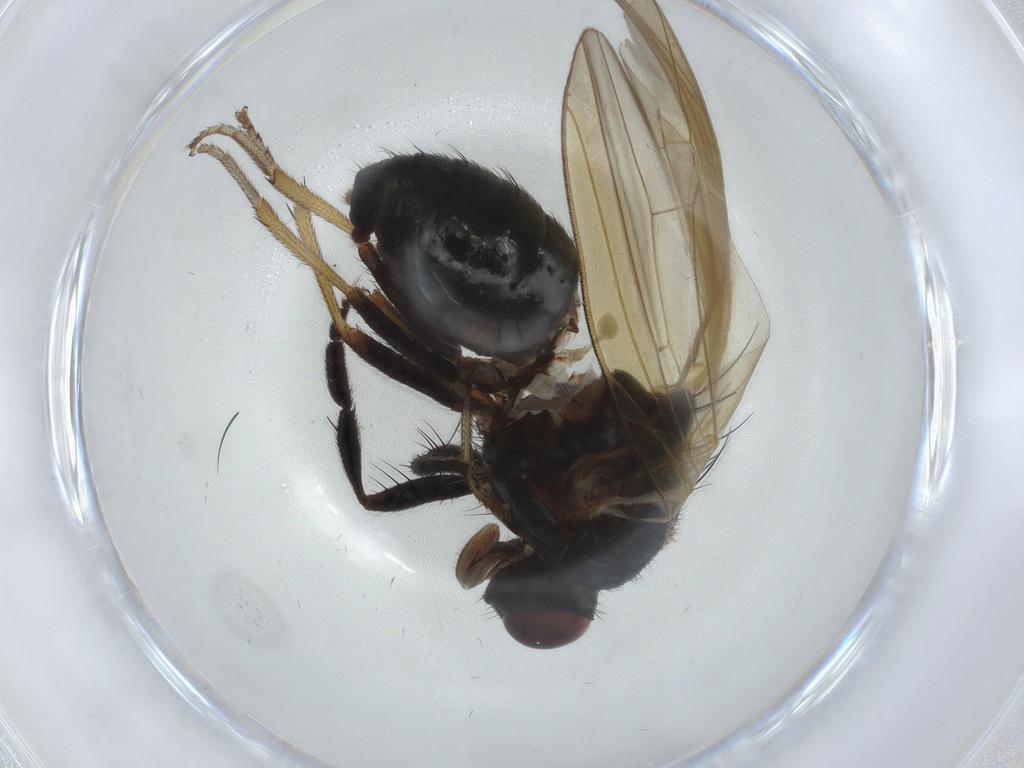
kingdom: Animalia
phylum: Arthropoda
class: Insecta
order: Diptera
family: Lauxaniidae
